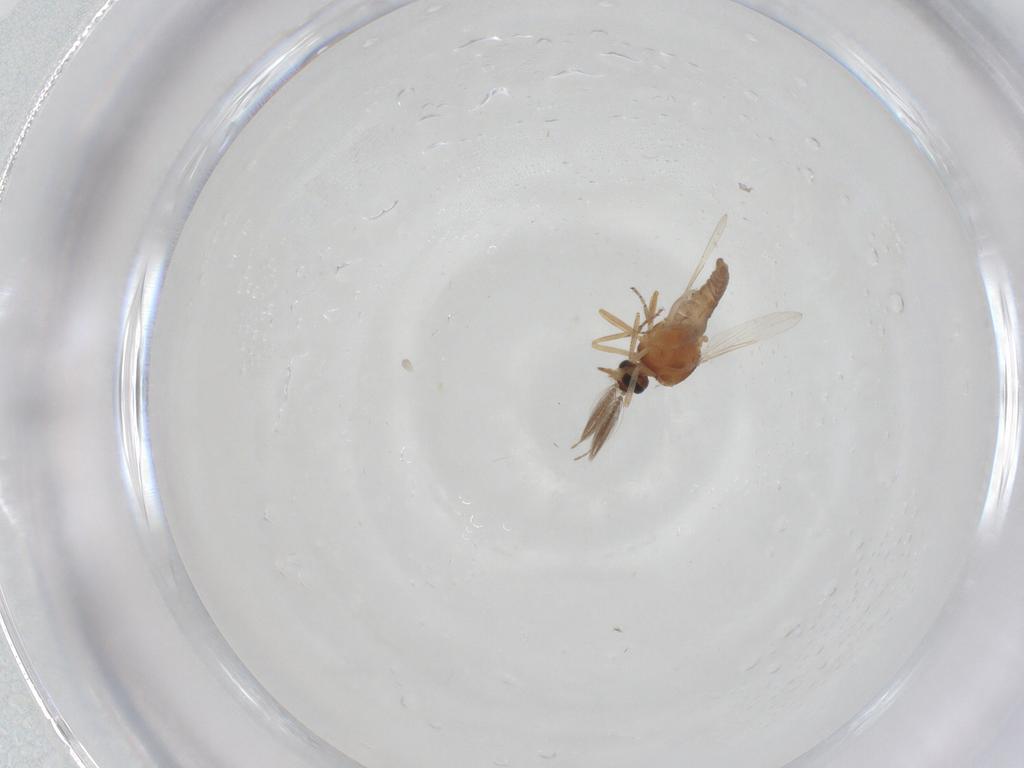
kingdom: Animalia
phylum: Arthropoda
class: Insecta
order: Diptera
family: Ceratopogonidae
